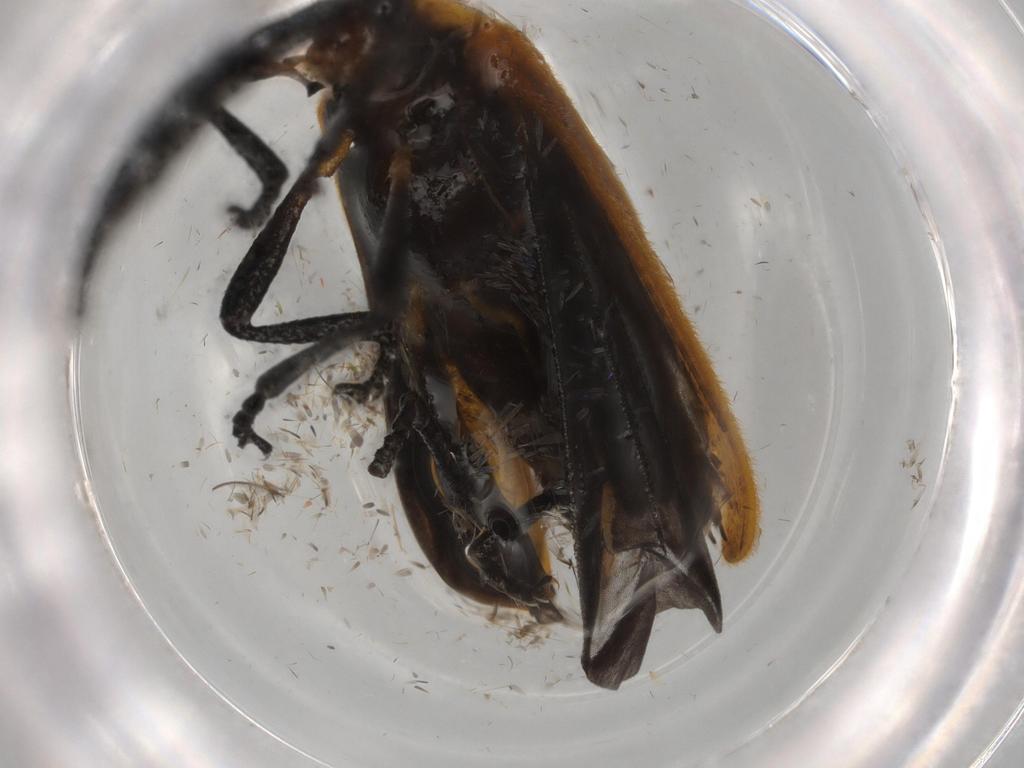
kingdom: Animalia
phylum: Arthropoda
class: Insecta
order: Coleoptera
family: Lycidae
